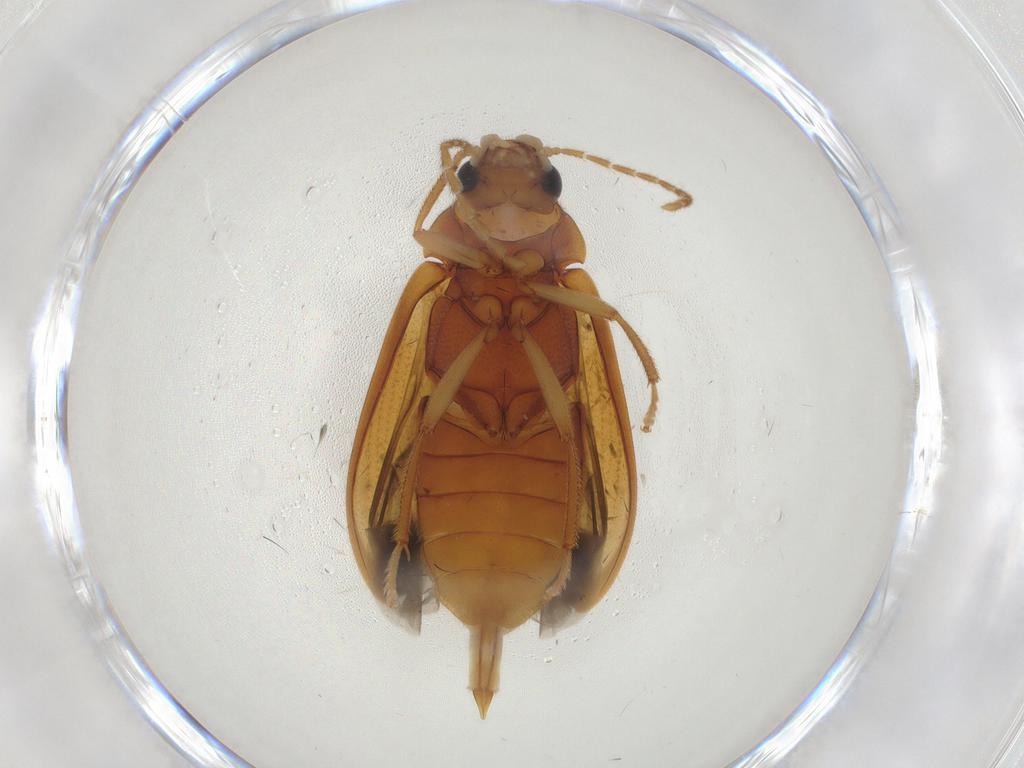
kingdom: Animalia
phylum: Arthropoda
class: Insecta
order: Coleoptera
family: Ptilodactylidae
